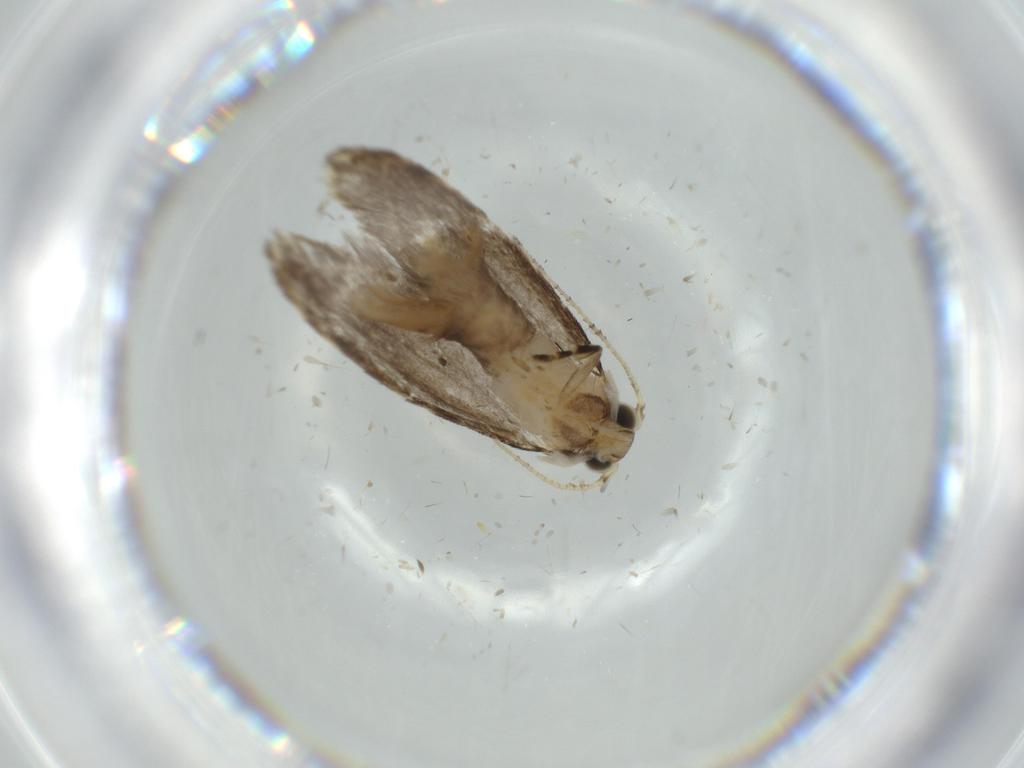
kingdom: Animalia
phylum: Arthropoda
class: Insecta
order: Lepidoptera
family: Tineidae
